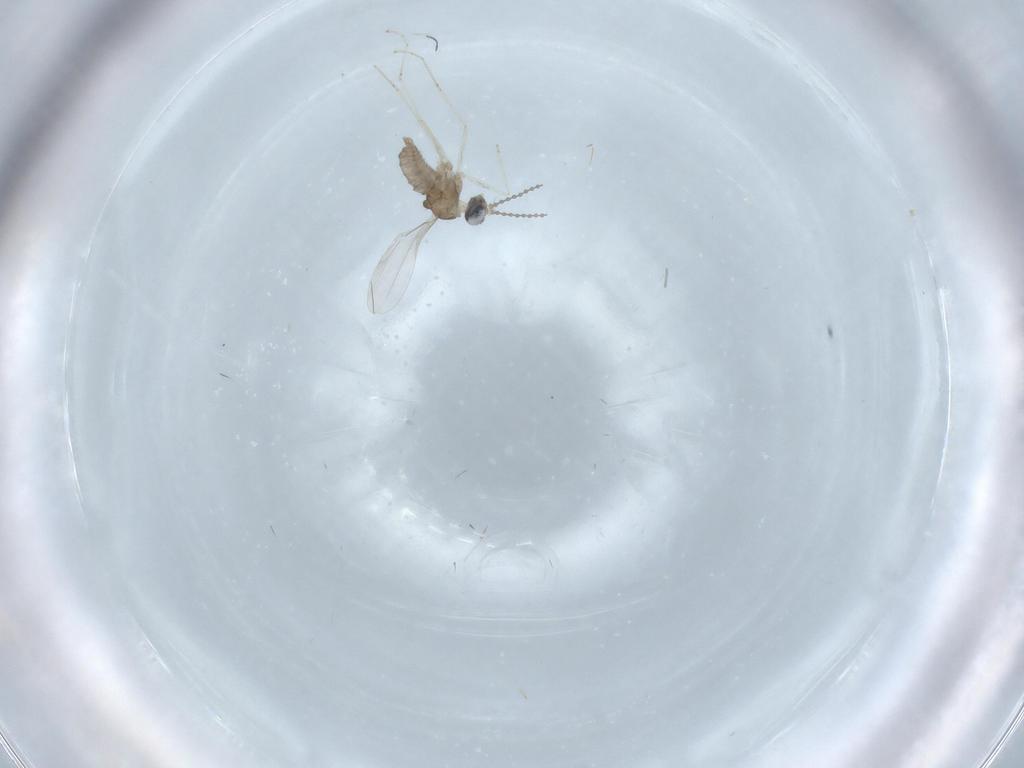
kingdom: Animalia
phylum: Arthropoda
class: Insecta
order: Diptera
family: Cecidomyiidae
